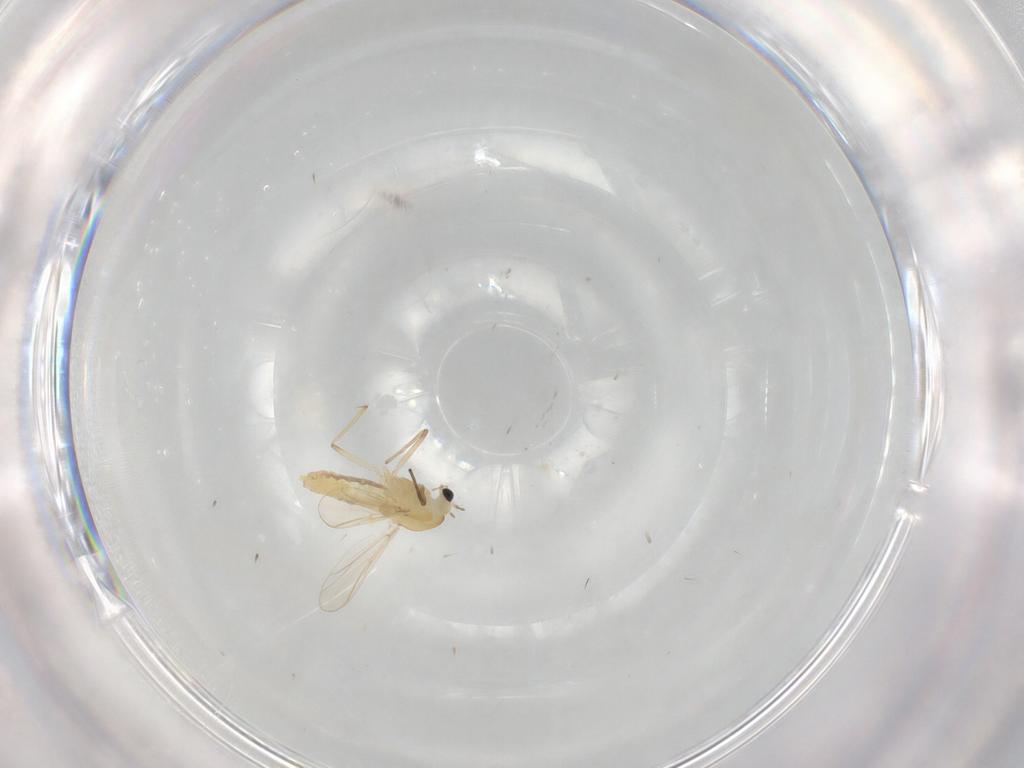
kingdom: Animalia
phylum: Arthropoda
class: Insecta
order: Diptera
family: Chironomidae
